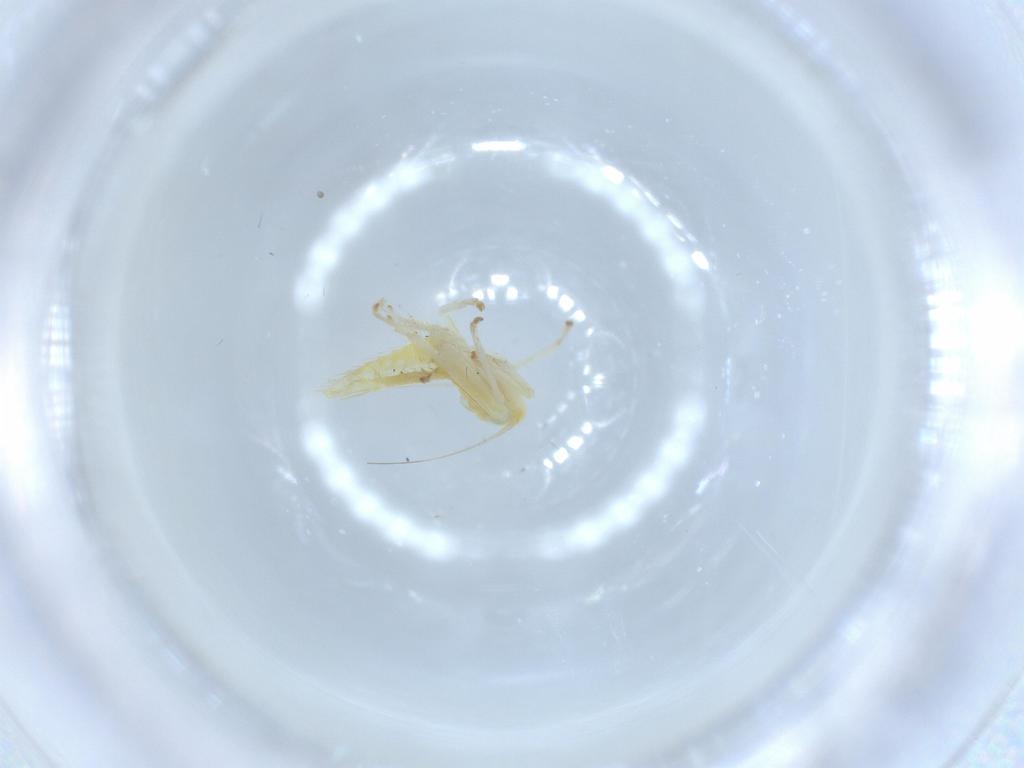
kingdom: Animalia
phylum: Arthropoda
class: Insecta
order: Hemiptera
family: Cicadellidae
